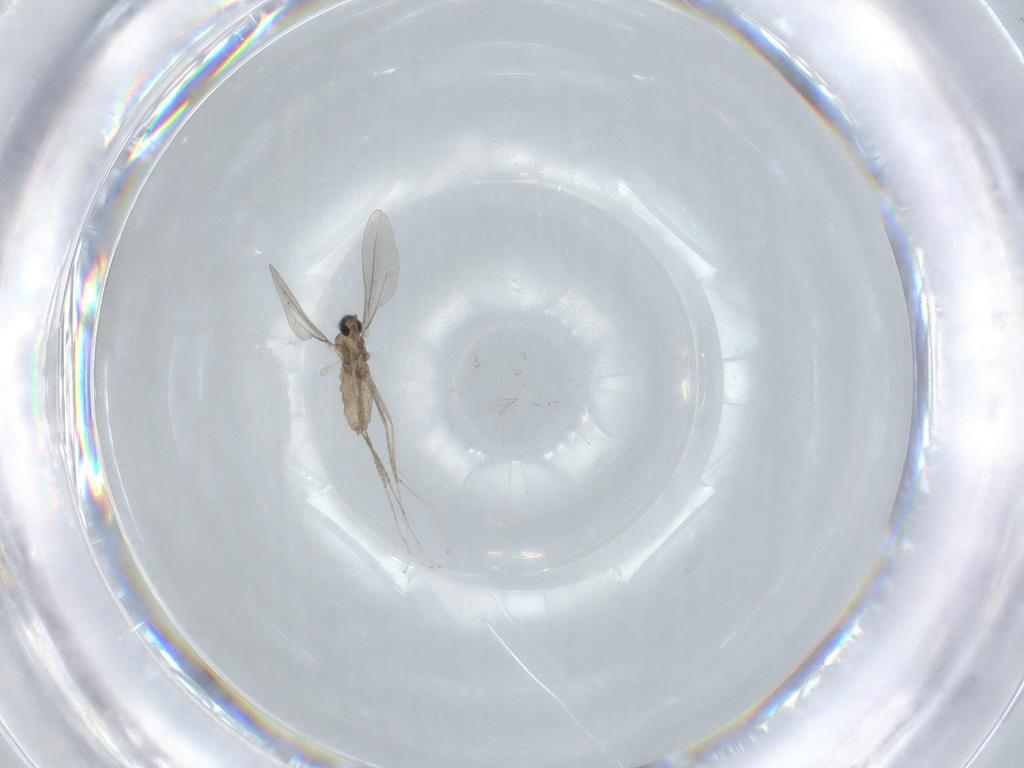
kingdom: Animalia
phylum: Arthropoda
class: Insecta
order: Diptera
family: Cecidomyiidae
